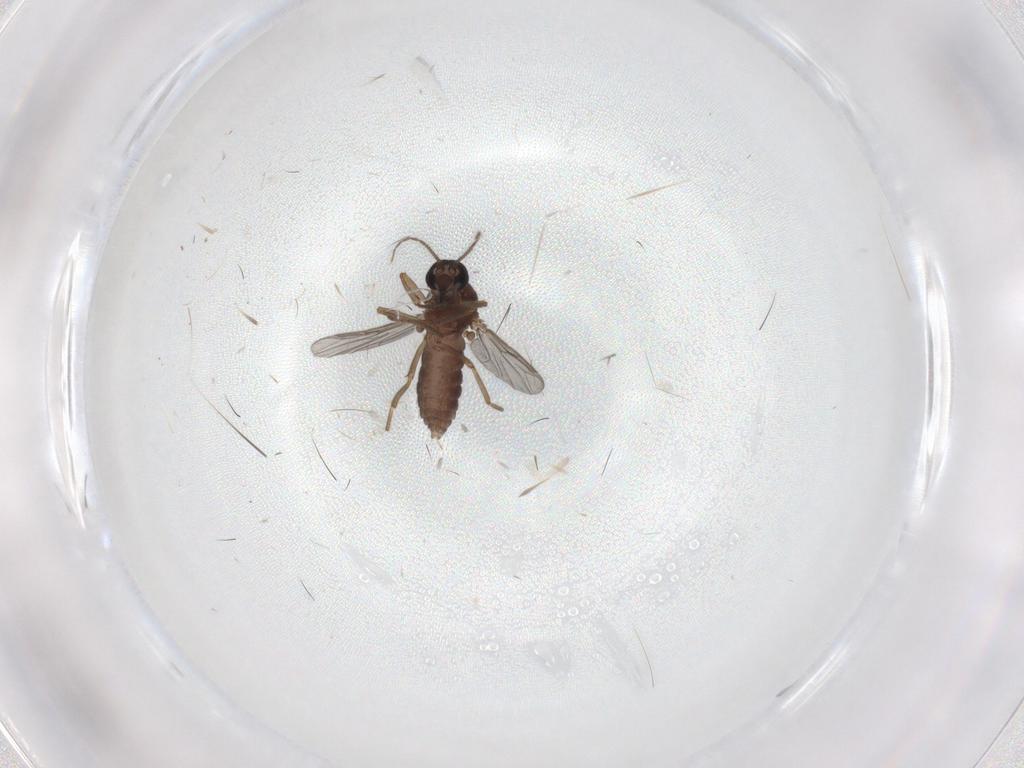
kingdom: Animalia
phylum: Arthropoda
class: Insecta
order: Diptera
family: Ceratopogonidae
